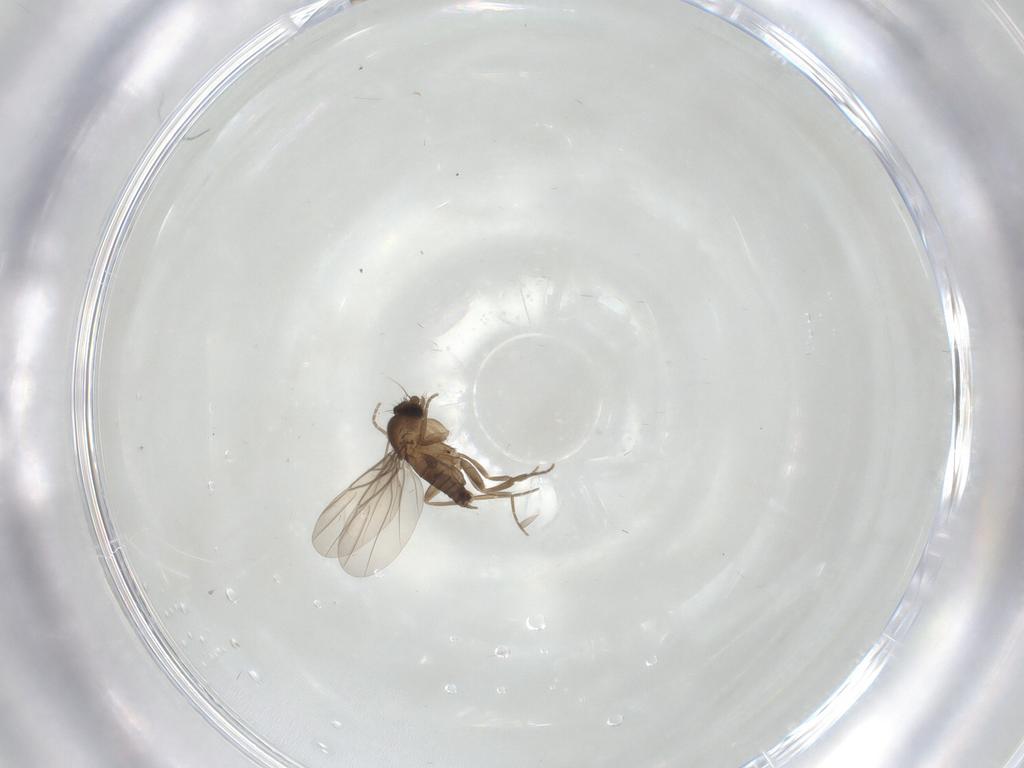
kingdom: Animalia
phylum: Arthropoda
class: Insecta
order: Diptera
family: Phoridae
